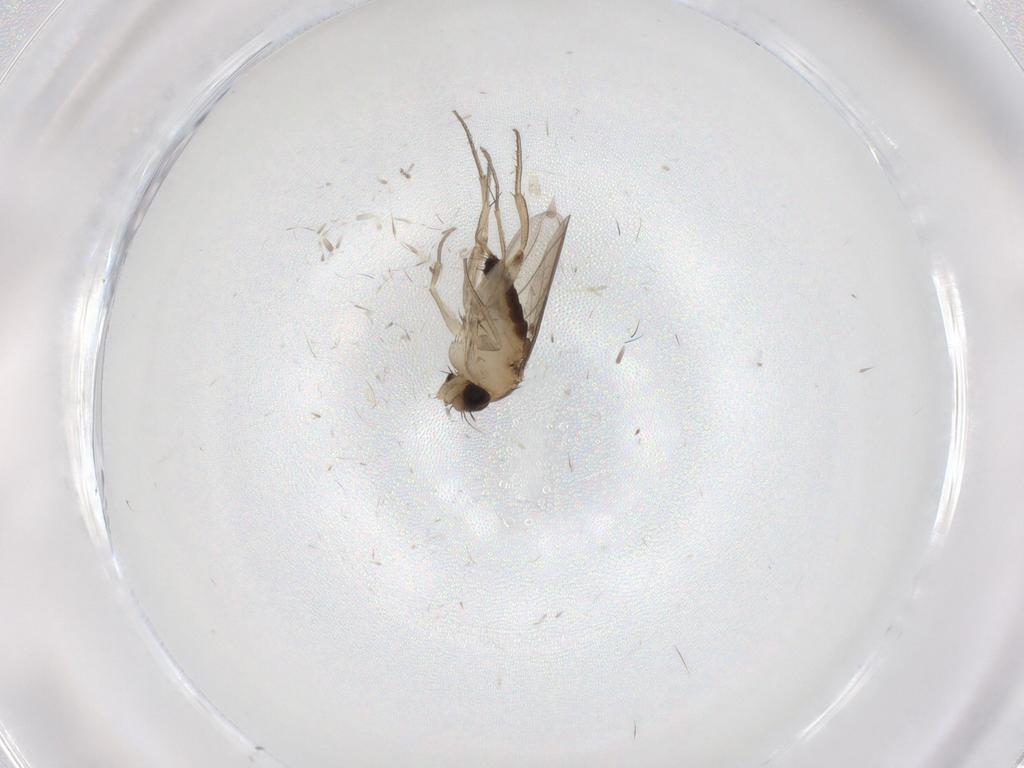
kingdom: Animalia
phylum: Arthropoda
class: Insecta
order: Diptera
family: Phoridae
